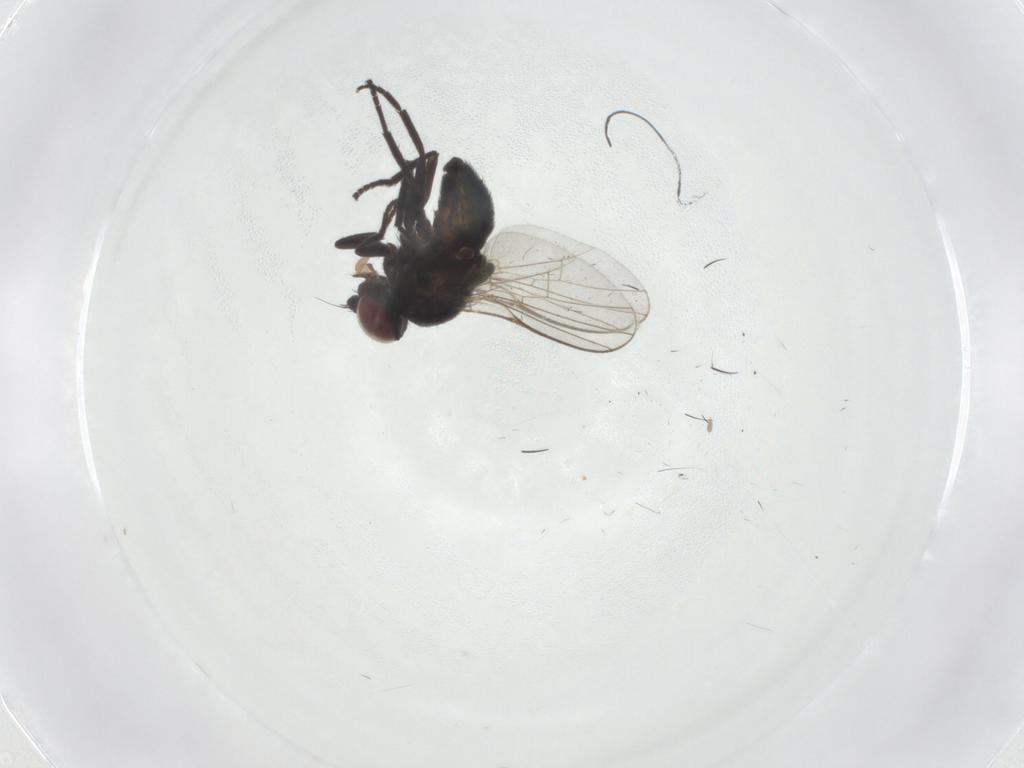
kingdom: Animalia
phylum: Arthropoda
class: Insecta
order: Diptera
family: Agromyzidae
